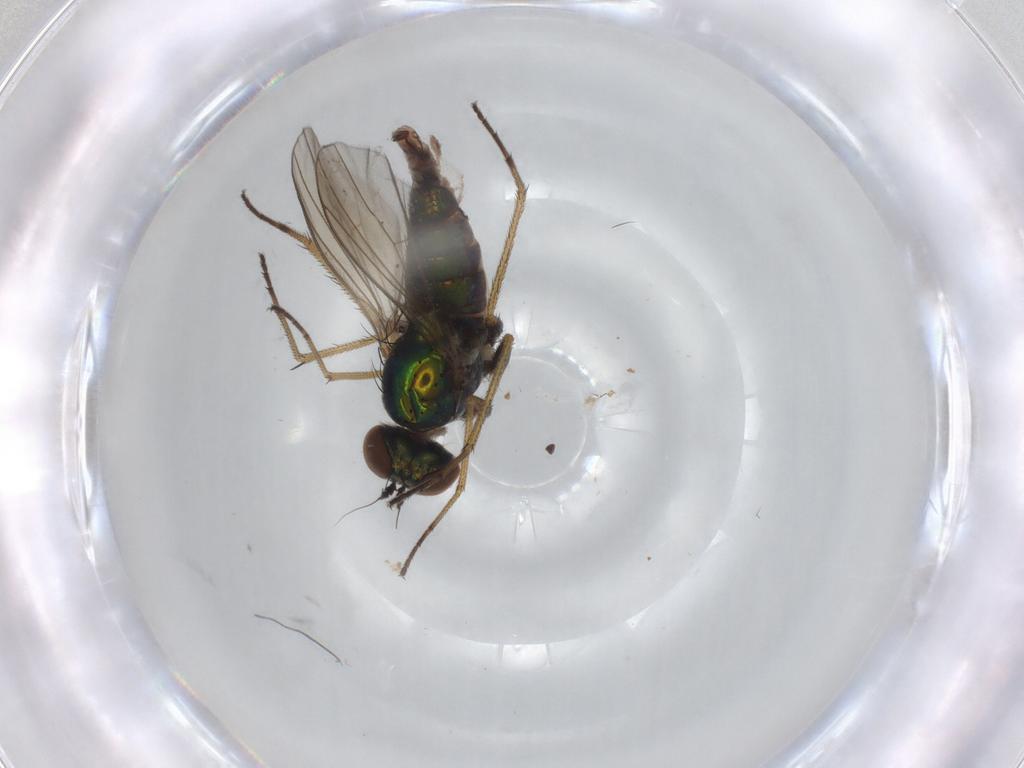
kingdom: Animalia
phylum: Arthropoda
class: Insecta
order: Diptera
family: Dolichopodidae
